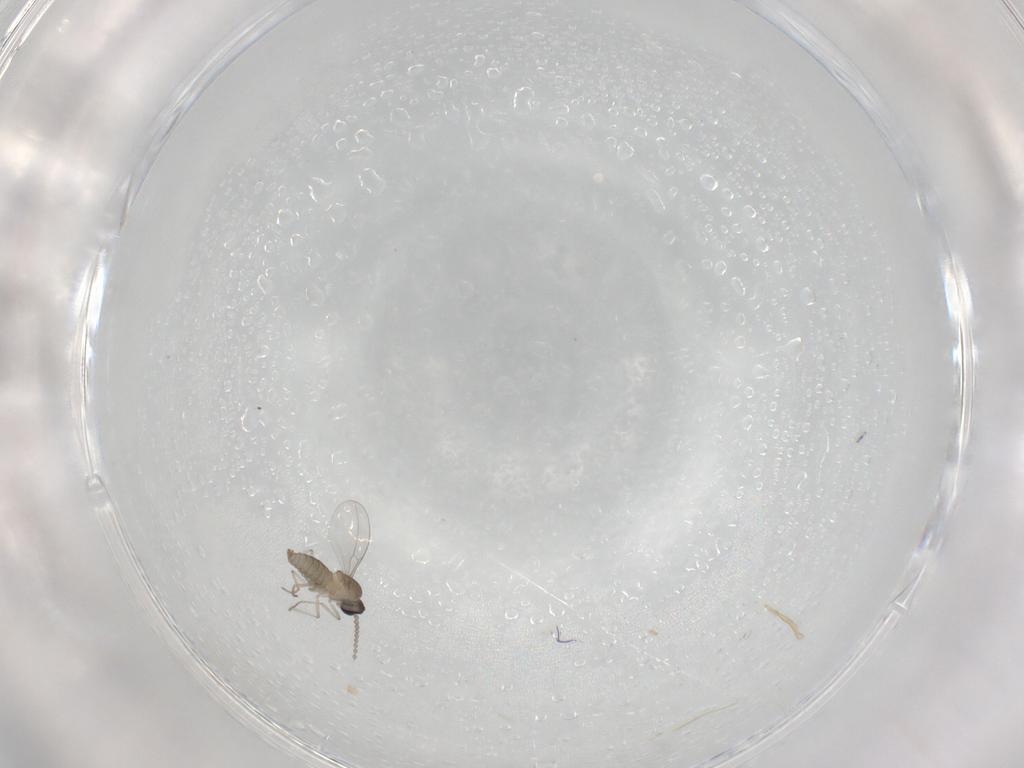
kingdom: Animalia
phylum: Arthropoda
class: Insecta
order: Diptera
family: Cecidomyiidae
